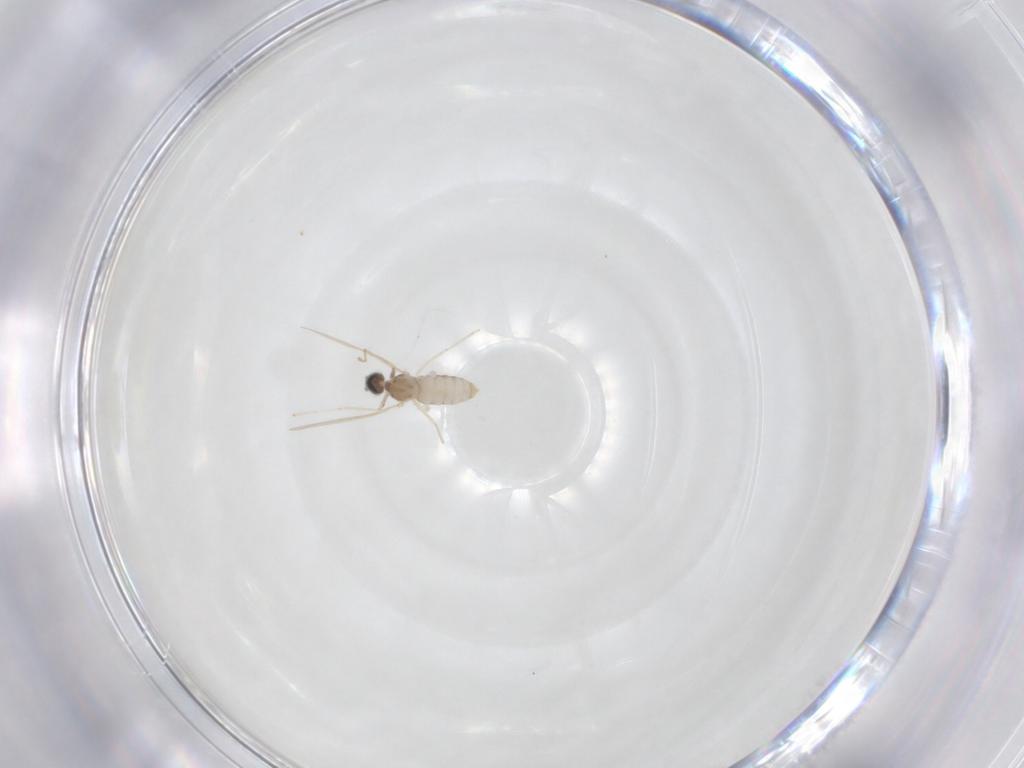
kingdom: Animalia
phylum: Arthropoda
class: Insecta
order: Diptera
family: Cecidomyiidae
